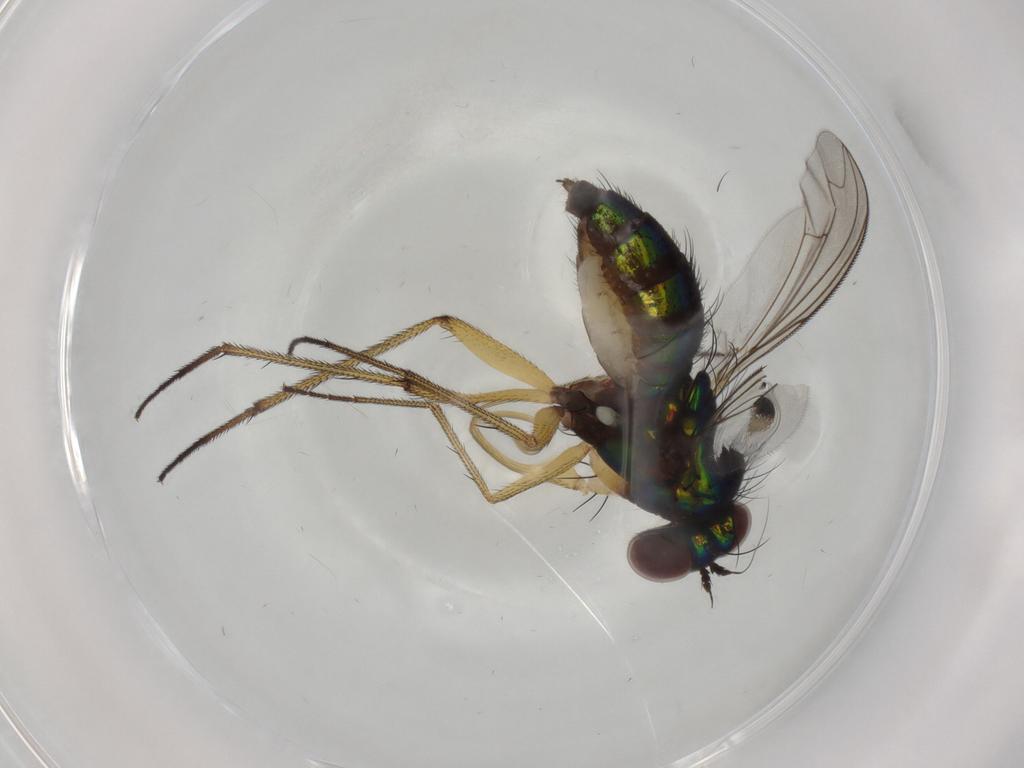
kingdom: Animalia
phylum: Arthropoda
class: Insecta
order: Diptera
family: Dolichopodidae
